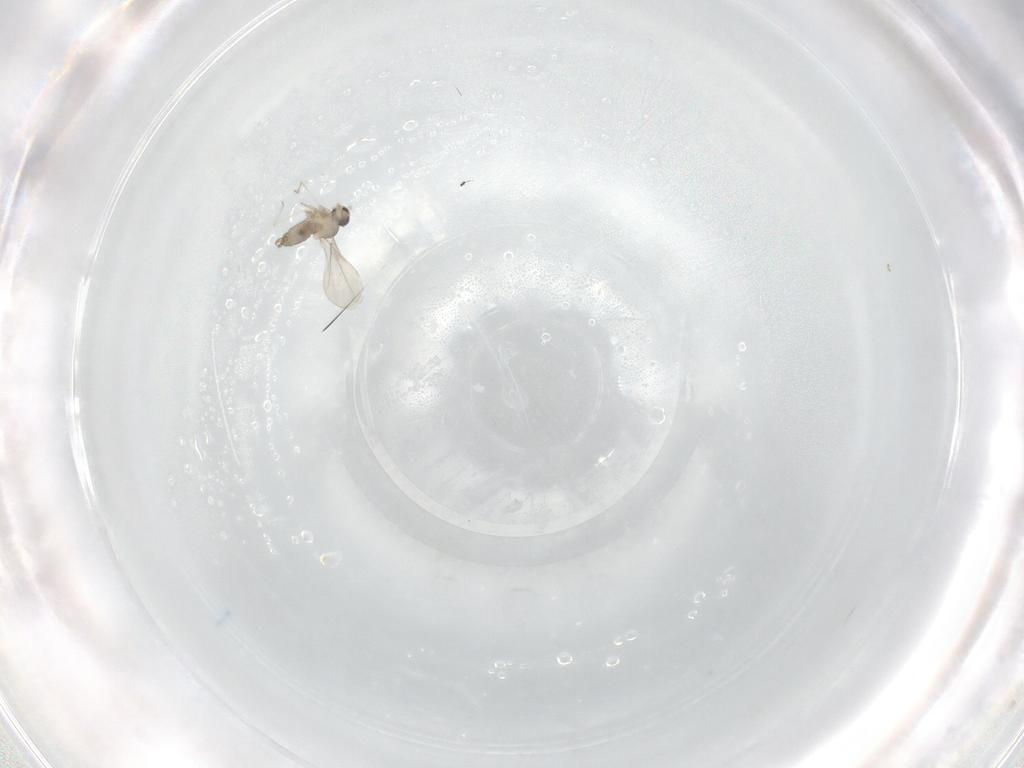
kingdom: Animalia
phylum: Arthropoda
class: Insecta
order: Diptera
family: Cecidomyiidae
